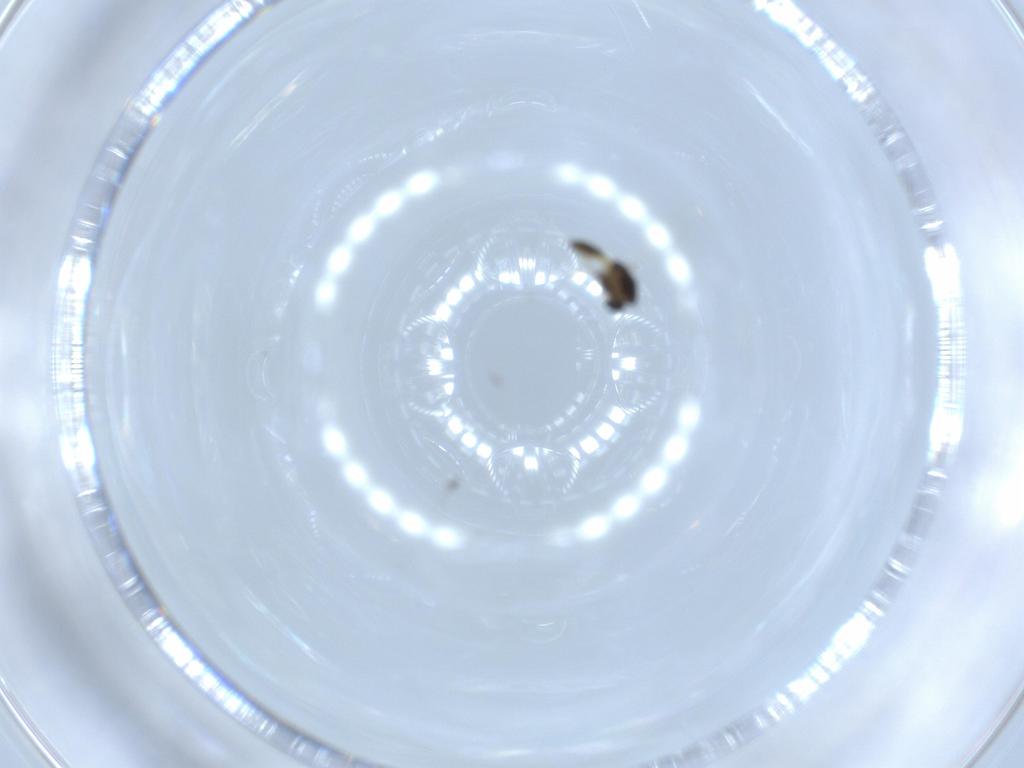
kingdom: Animalia
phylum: Arthropoda
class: Insecta
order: Diptera
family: Chironomidae
